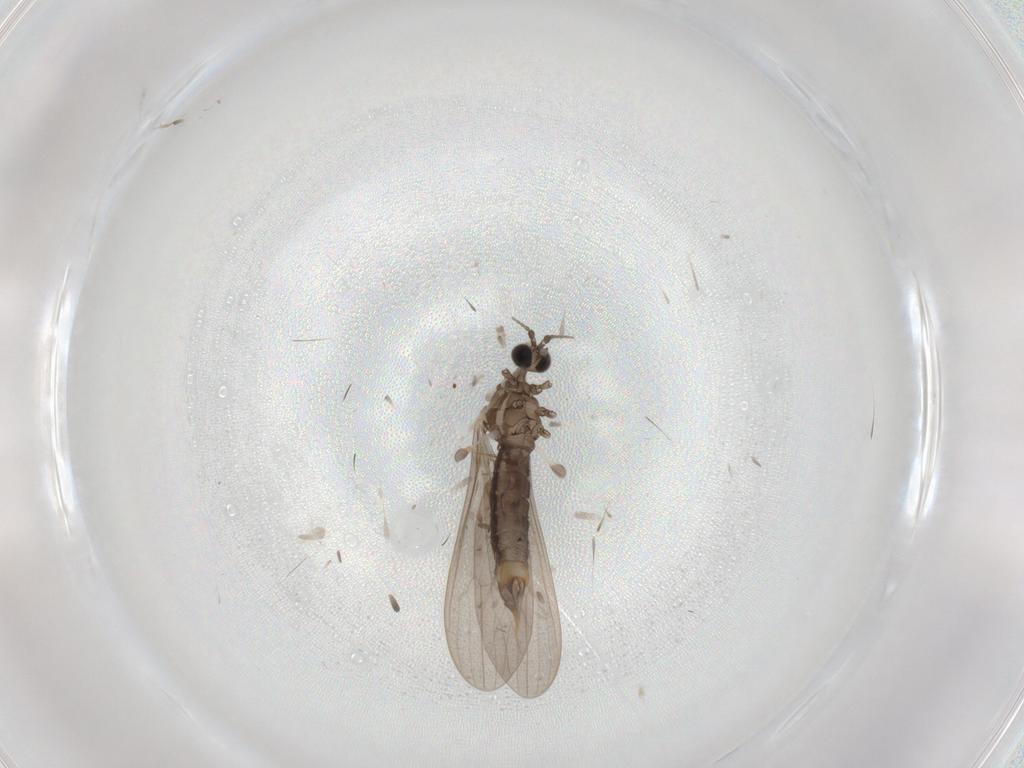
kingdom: Animalia
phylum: Arthropoda
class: Insecta
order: Diptera
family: Limoniidae
